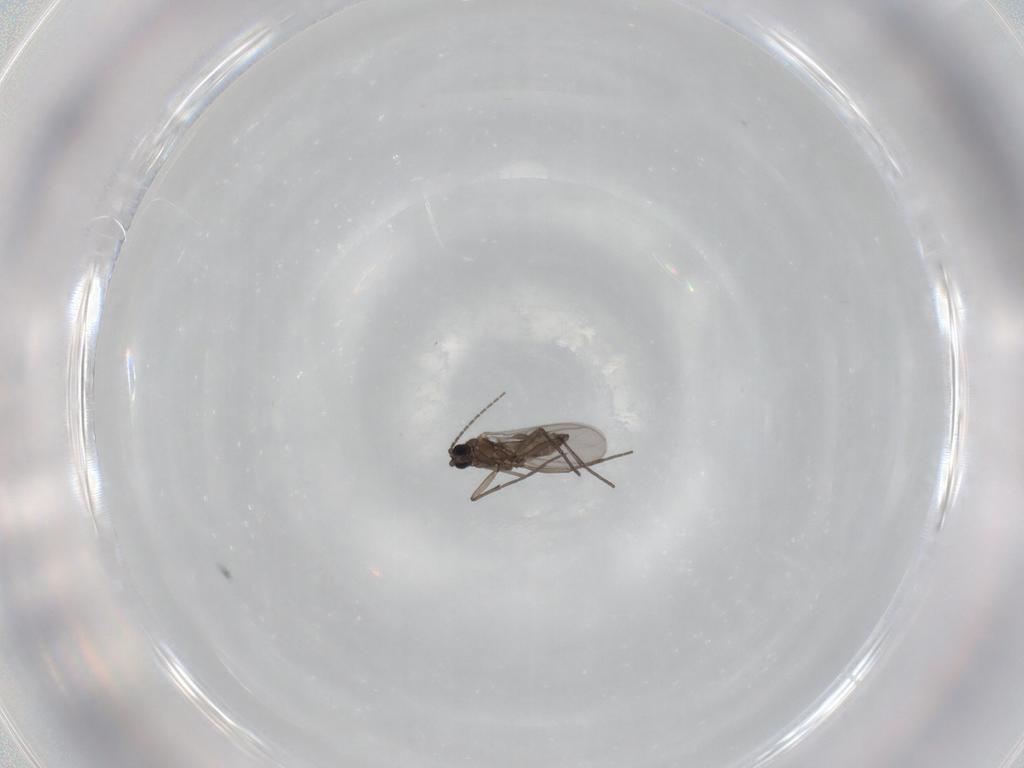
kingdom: Animalia
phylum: Arthropoda
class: Insecta
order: Diptera
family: Sciaridae
